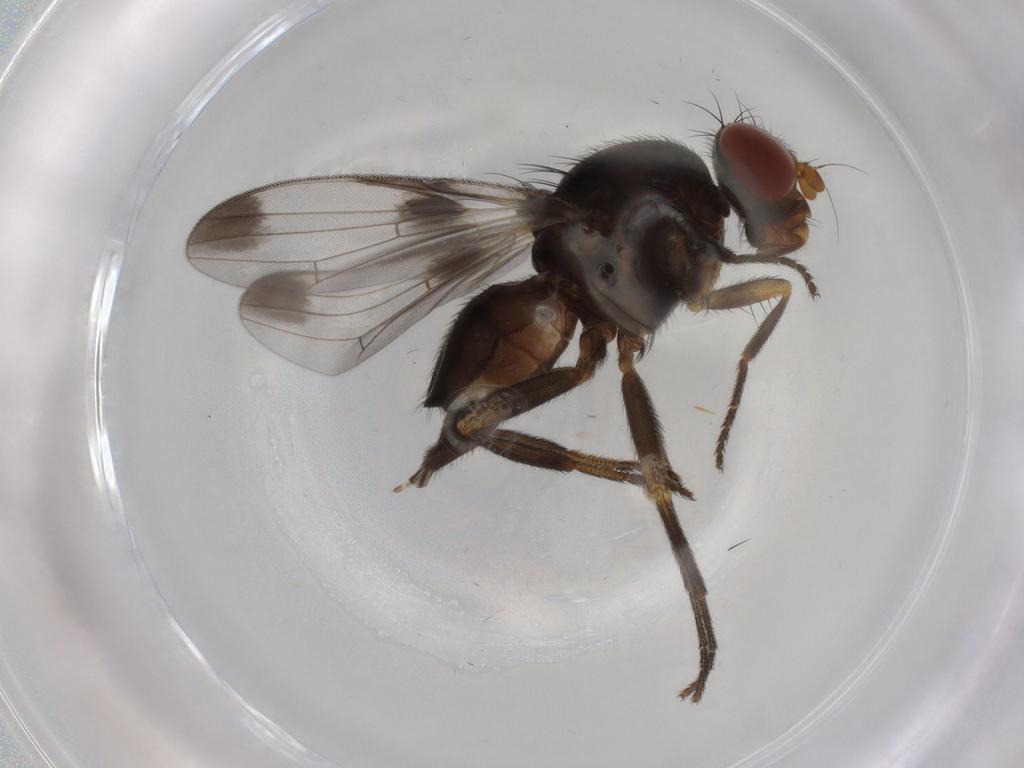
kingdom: Animalia
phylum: Arthropoda
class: Insecta
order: Diptera
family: Ulidiidae
